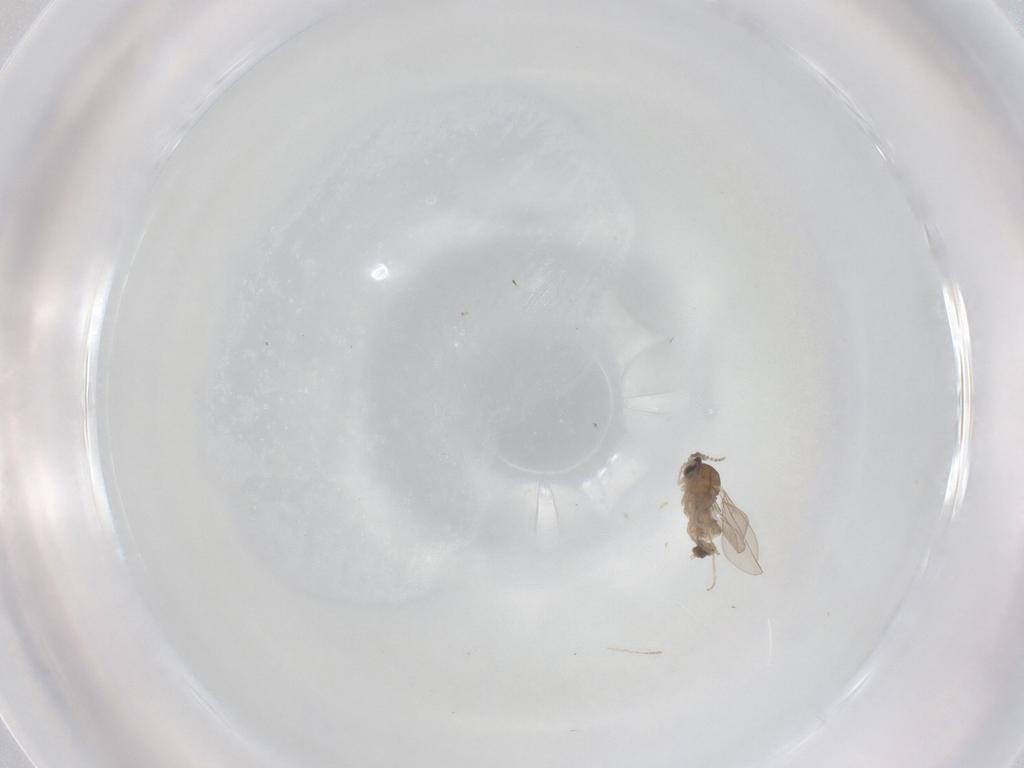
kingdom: Animalia
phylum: Arthropoda
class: Insecta
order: Diptera
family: Cecidomyiidae
